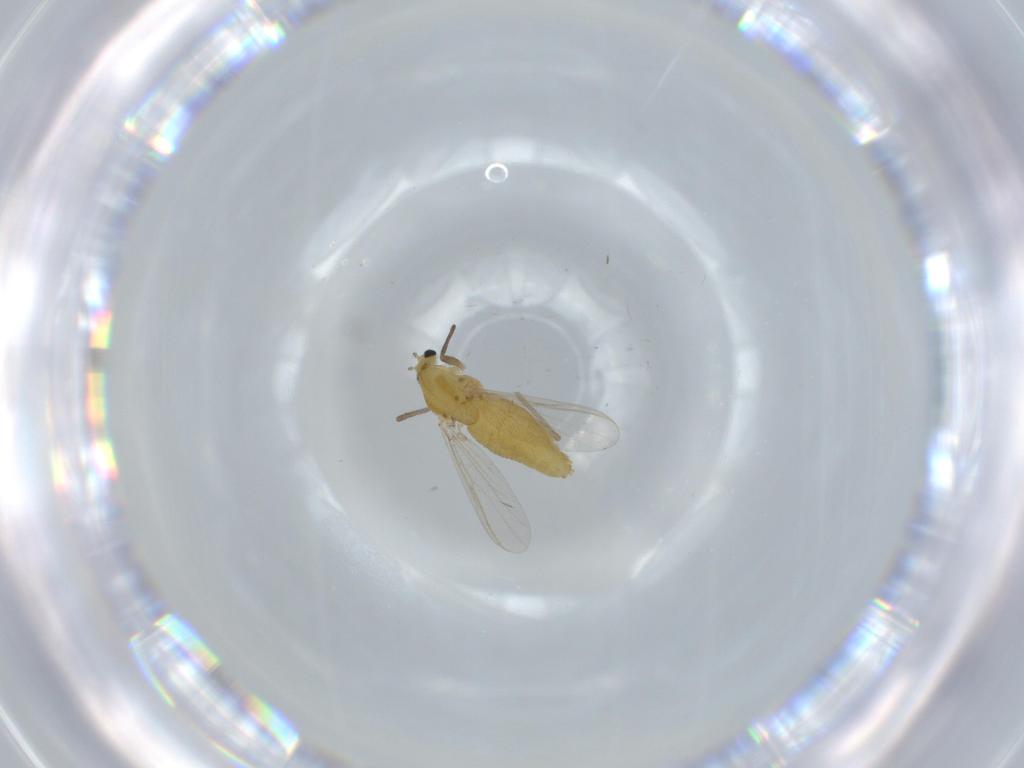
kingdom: Animalia
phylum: Arthropoda
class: Insecta
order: Diptera
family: Chironomidae
